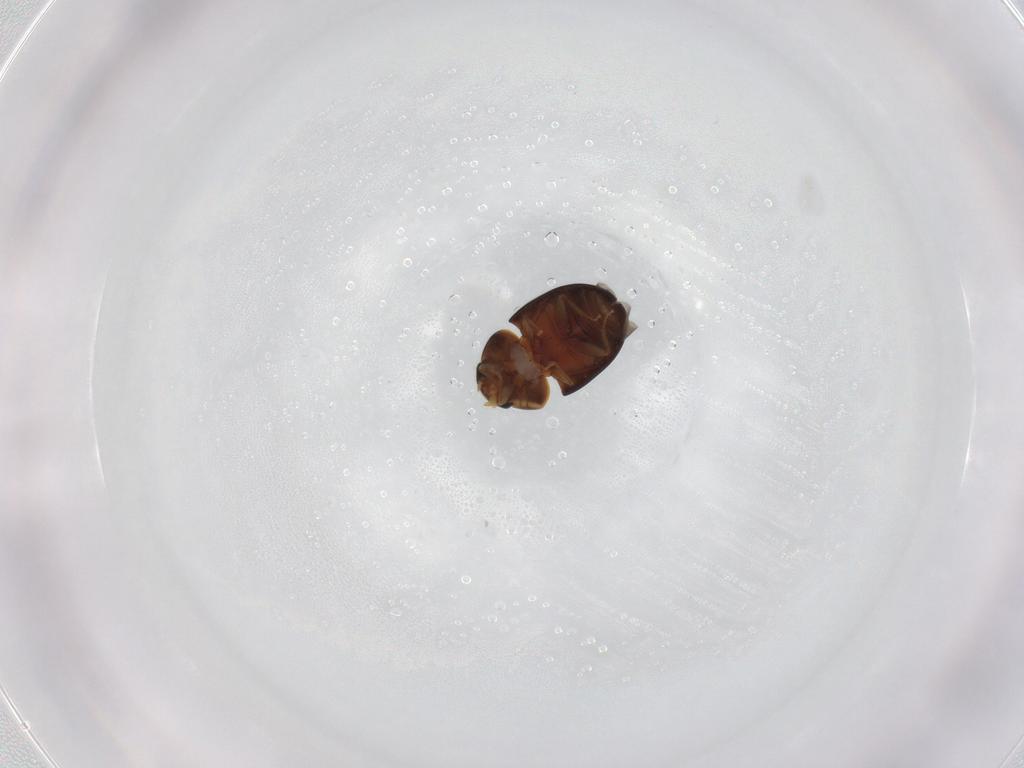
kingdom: Animalia
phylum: Arthropoda
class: Insecta
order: Coleoptera
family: Phalacridae
